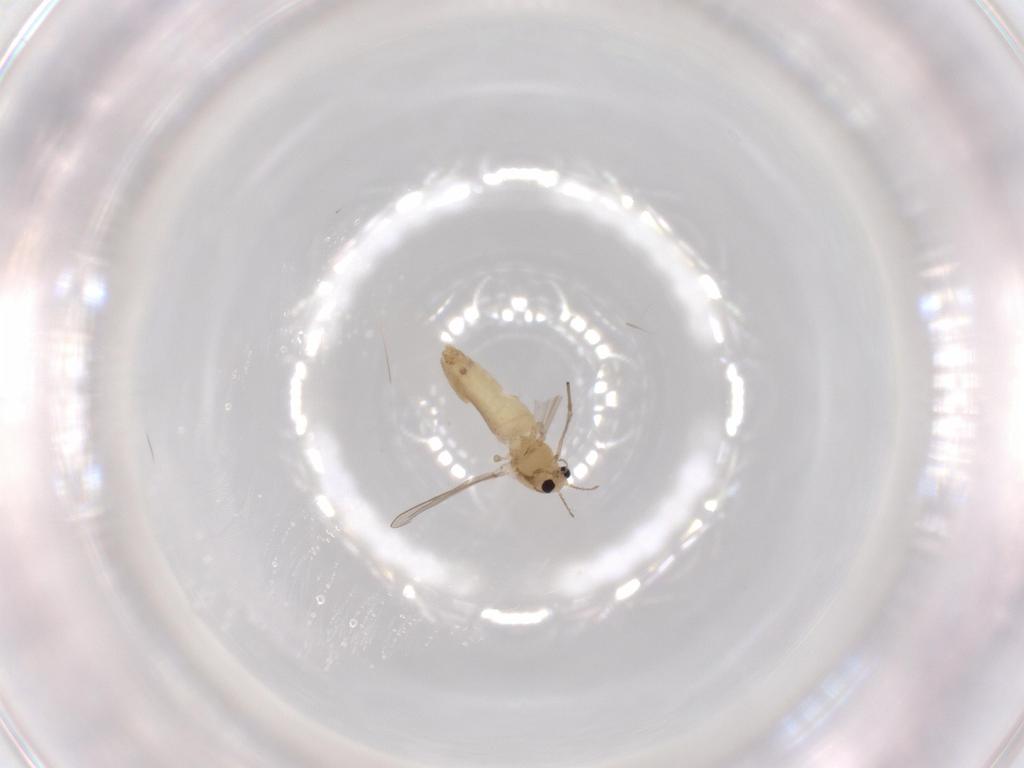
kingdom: Animalia
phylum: Arthropoda
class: Insecta
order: Diptera
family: Chironomidae
